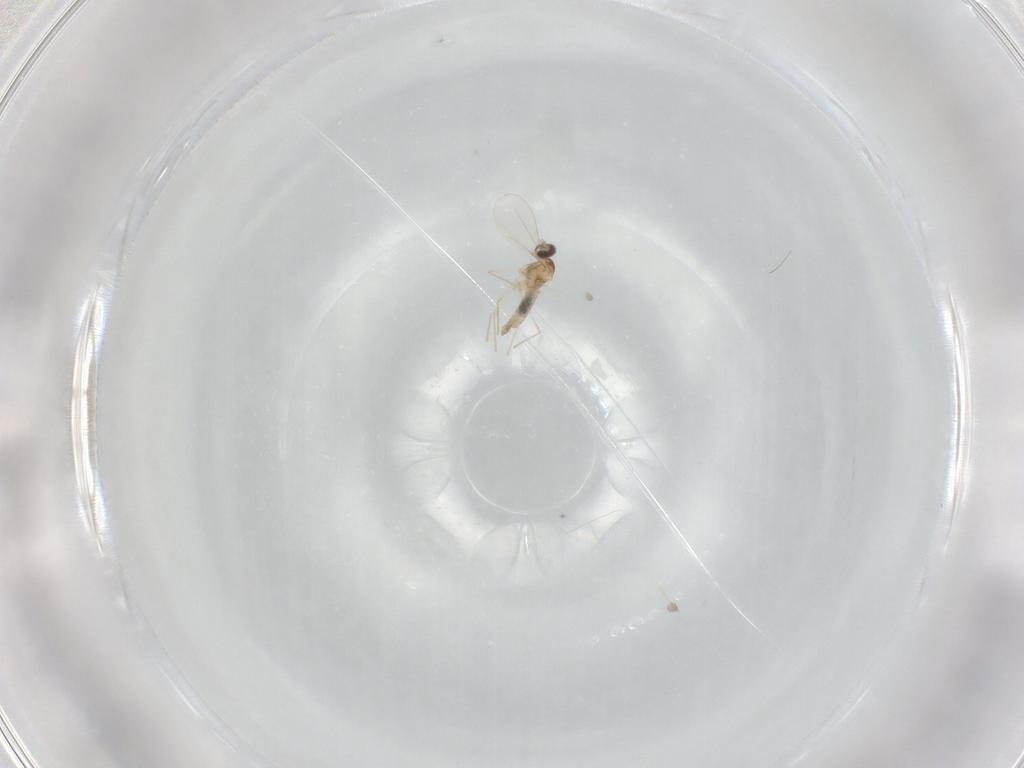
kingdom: Animalia
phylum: Arthropoda
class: Insecta
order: Diptera
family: Cecidomyiidae
